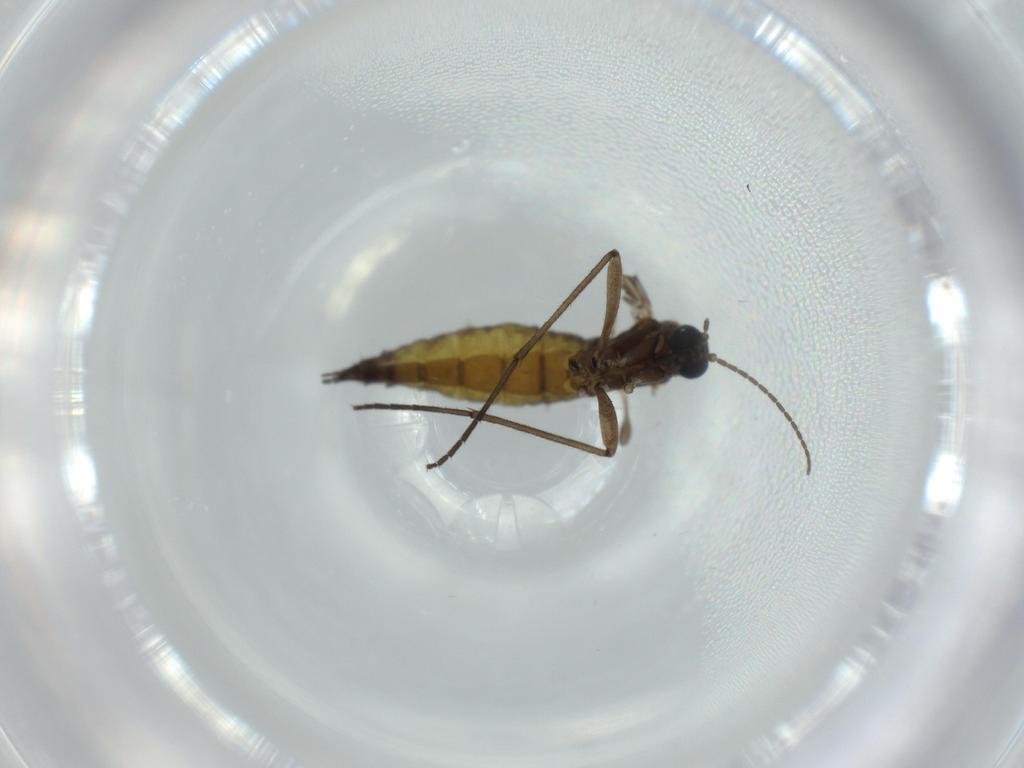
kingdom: Animalia
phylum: Arthropoda
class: Insecta
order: Diptera
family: Sciaridae
